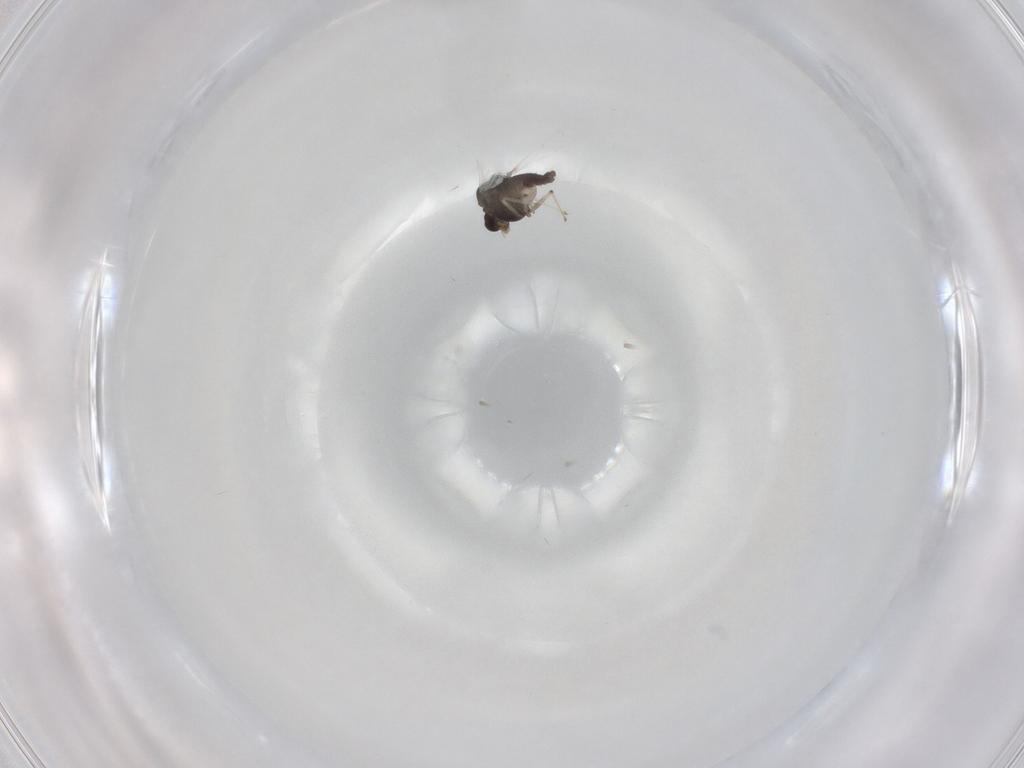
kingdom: Animalia
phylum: Arthropoda
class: Insecta
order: Diptera
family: Chironomidae
